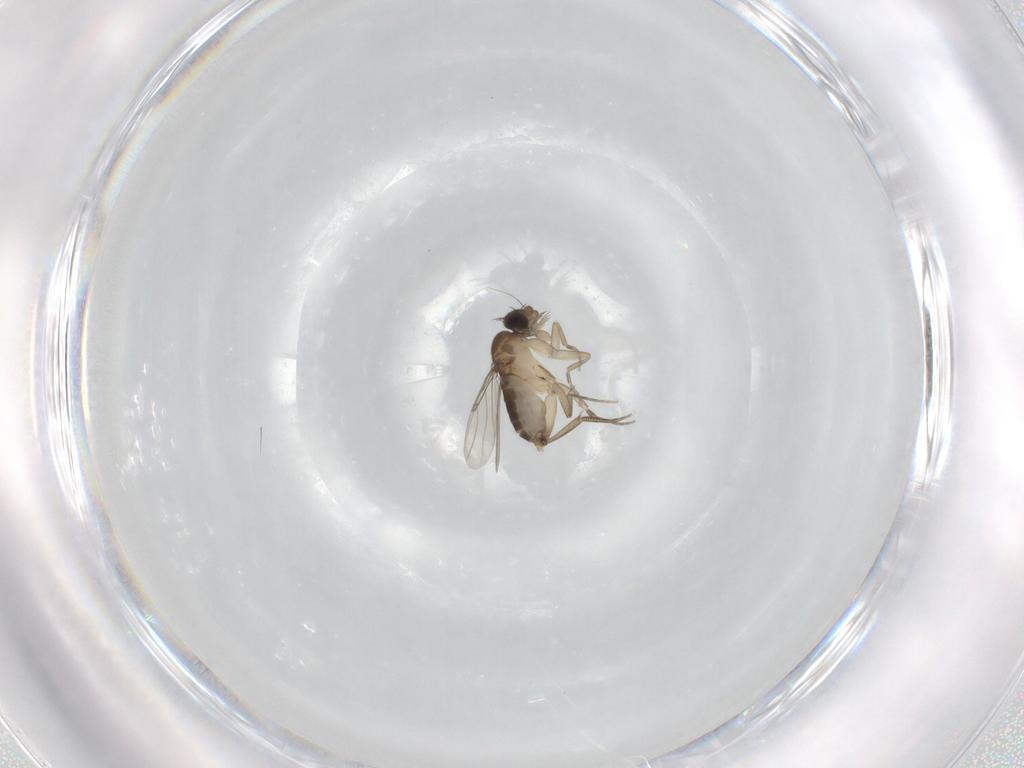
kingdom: Animalia
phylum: Arthropoda
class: Insecta
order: Diptera
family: Phoridae
